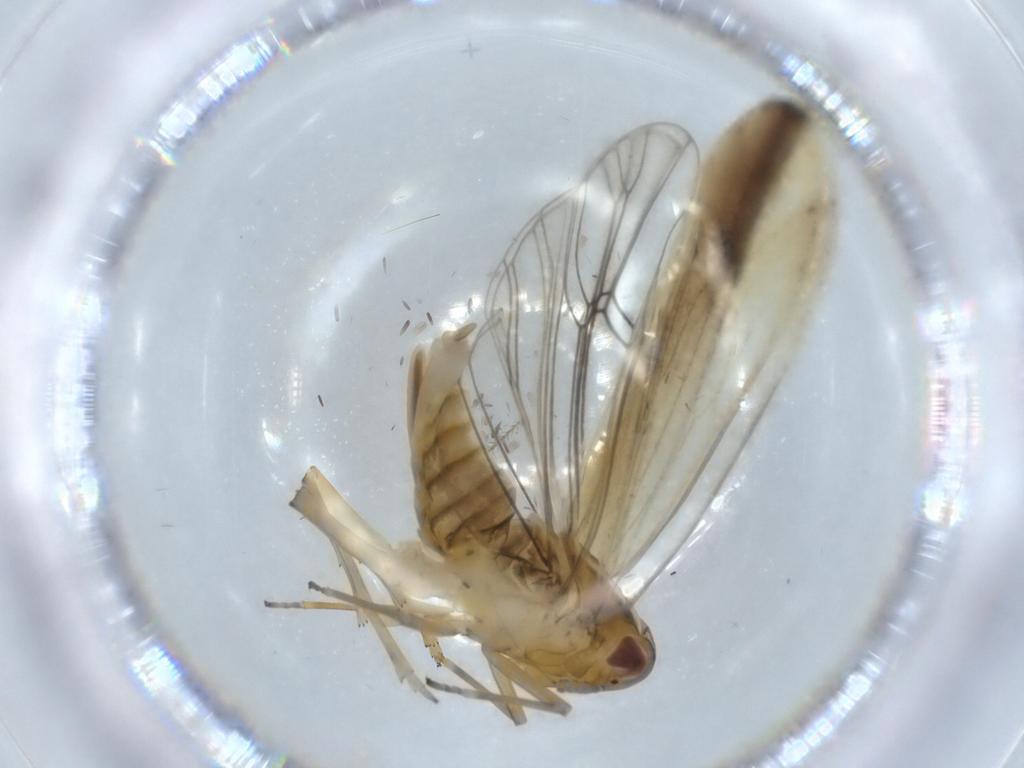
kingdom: Animalia
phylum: Arthropoda
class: Insecta
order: Hemiptera
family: Delphacidae
